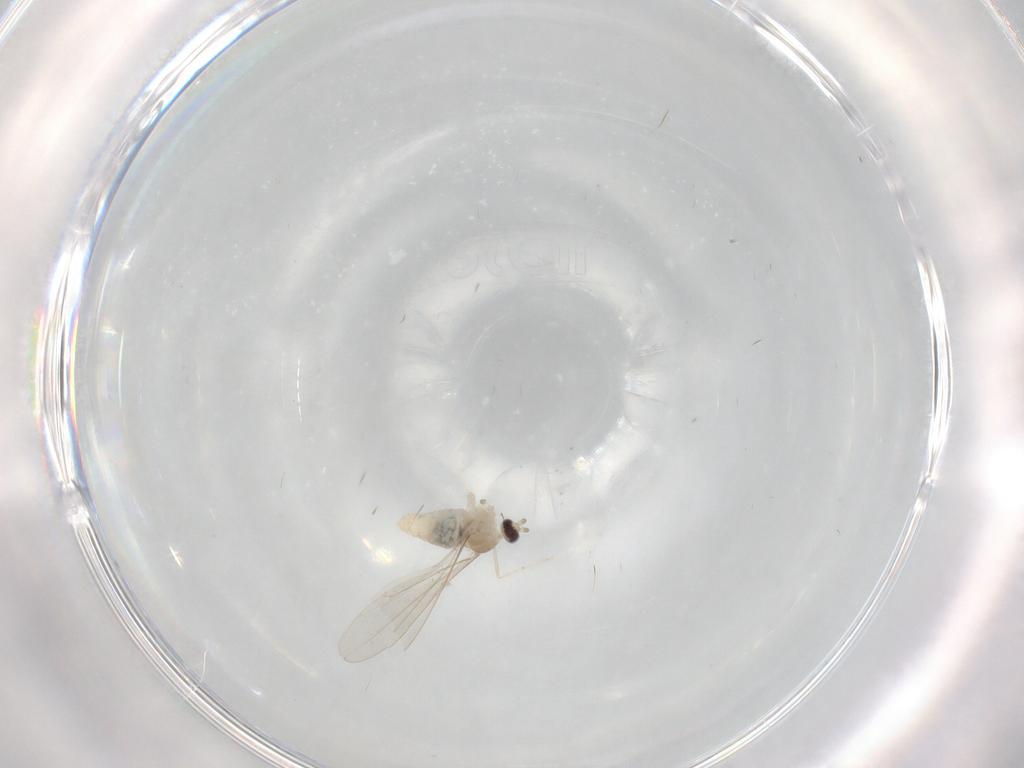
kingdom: Animalia
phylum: Arthropoda
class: Insecta
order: Diptera
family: Cecidomyiidae
